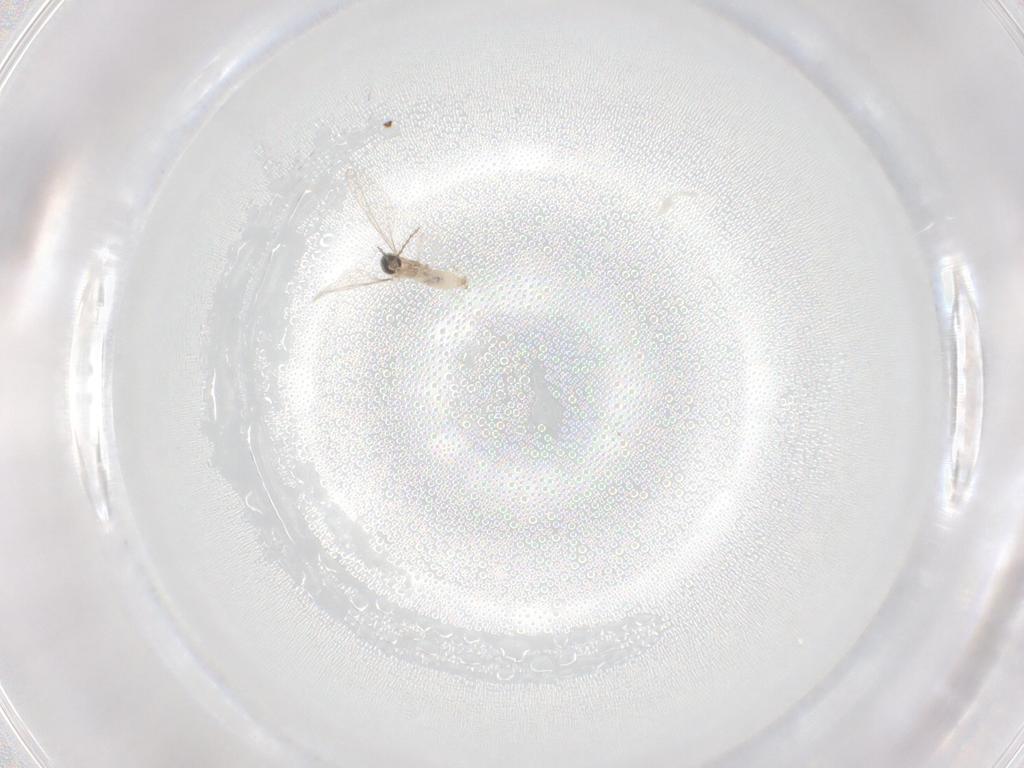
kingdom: Animalia
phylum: Arthropoda
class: Insecta
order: Diptera
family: Cecidomyiidae
